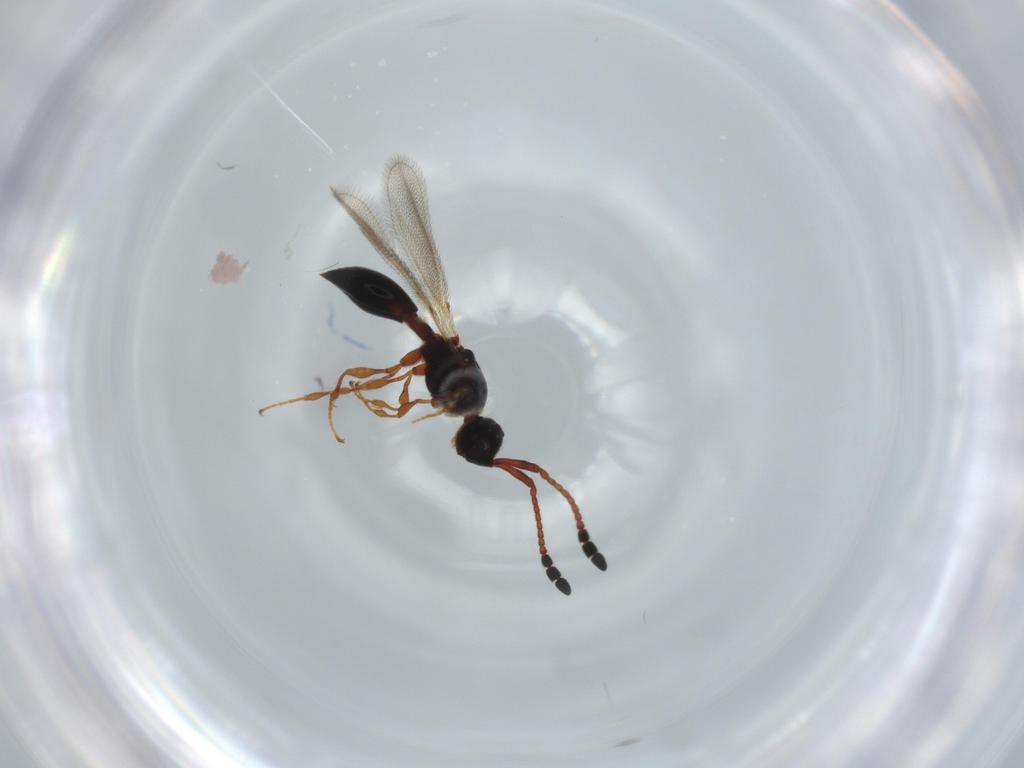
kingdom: Animalia
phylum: Arthropoda
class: Insecta
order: Hymenoptera
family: Diapriidae
